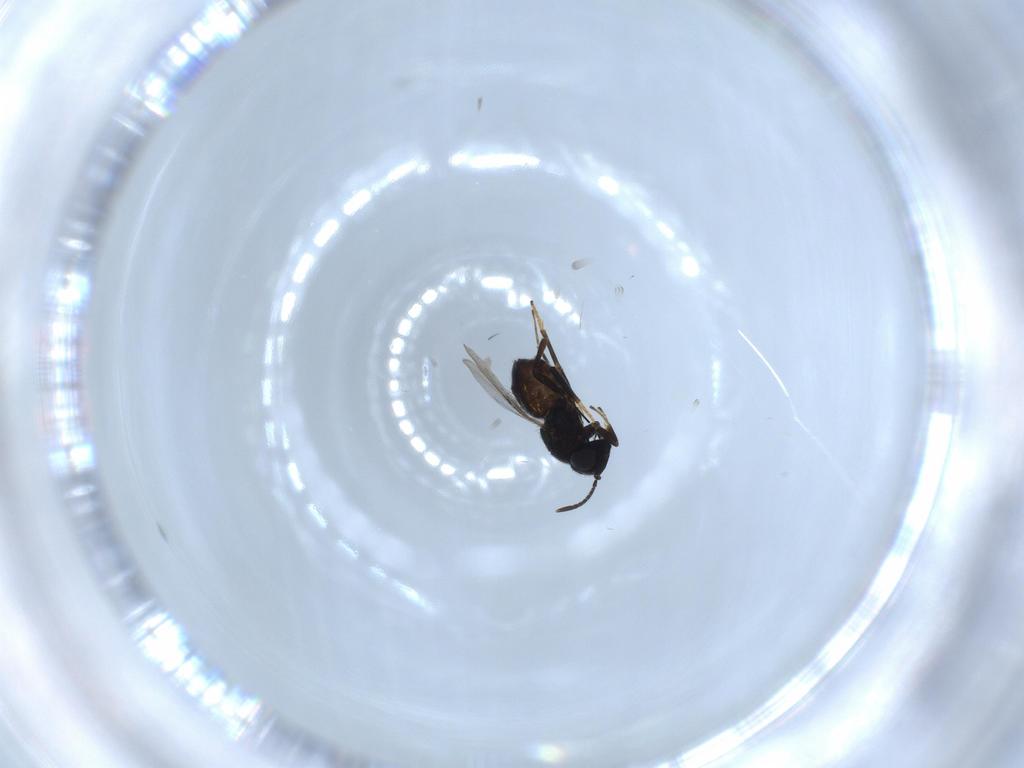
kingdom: Animalia
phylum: Arthropoda
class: Insecta
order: Hymenoptera
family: Encyrtidae
